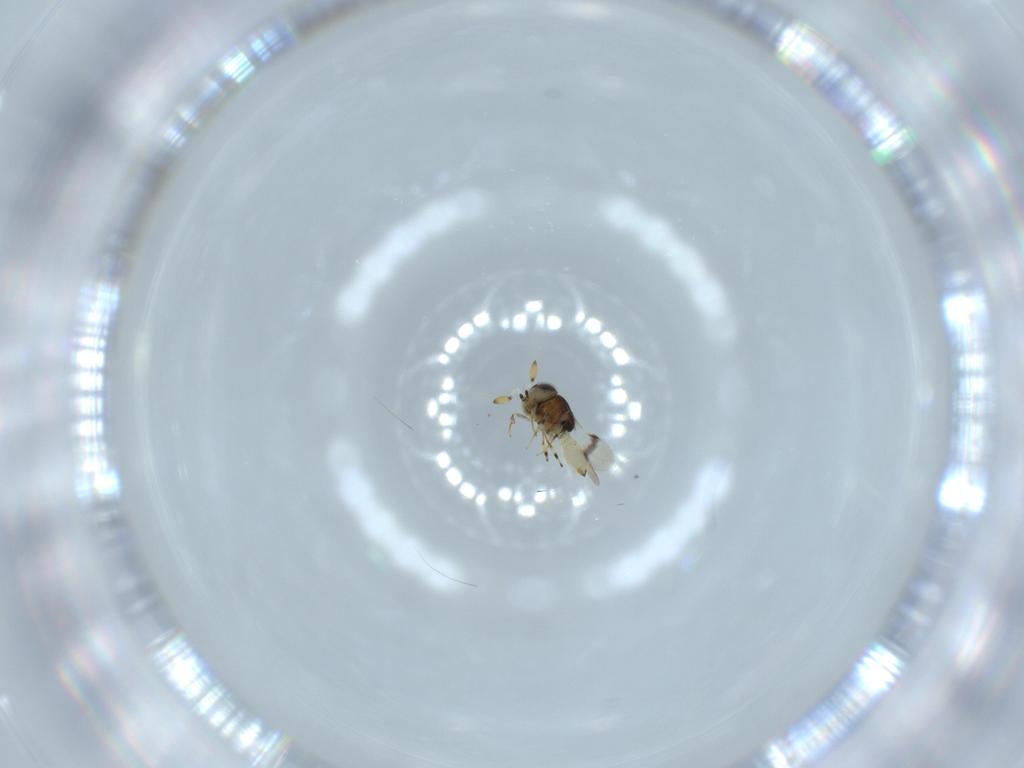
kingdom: Animalia
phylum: Arthropoda
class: Insecta
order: Hymenoptera
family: Scelionidae
